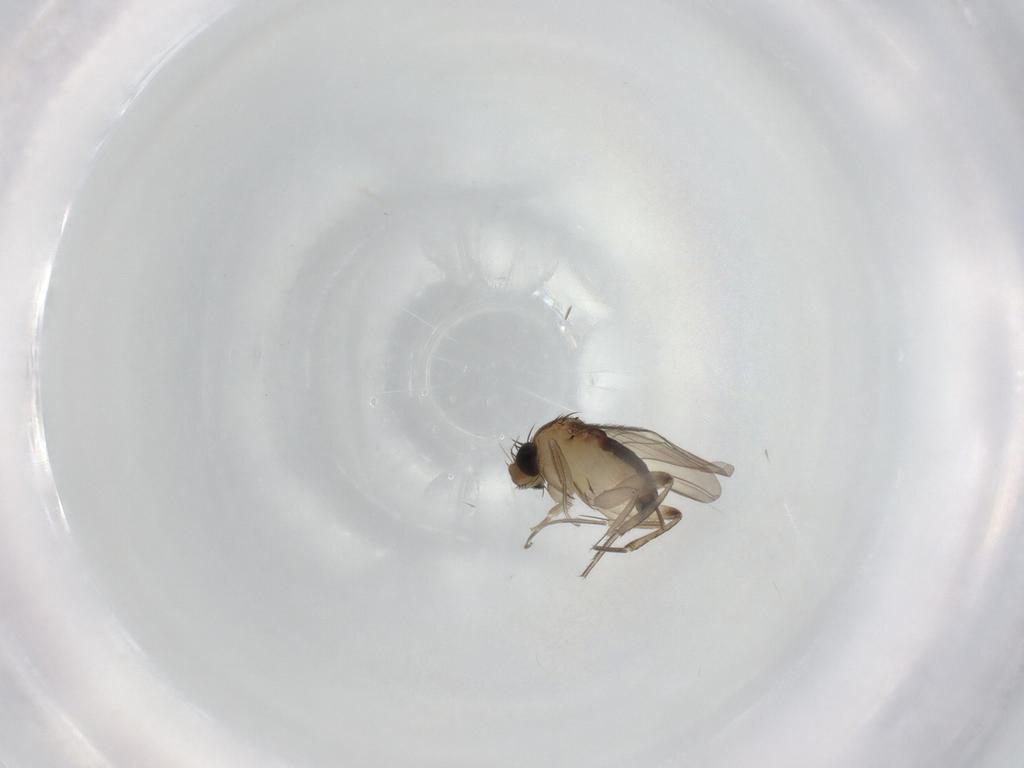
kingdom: Animalia
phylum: Arthropoda
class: Insecta
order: Diptera
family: Phoridae
